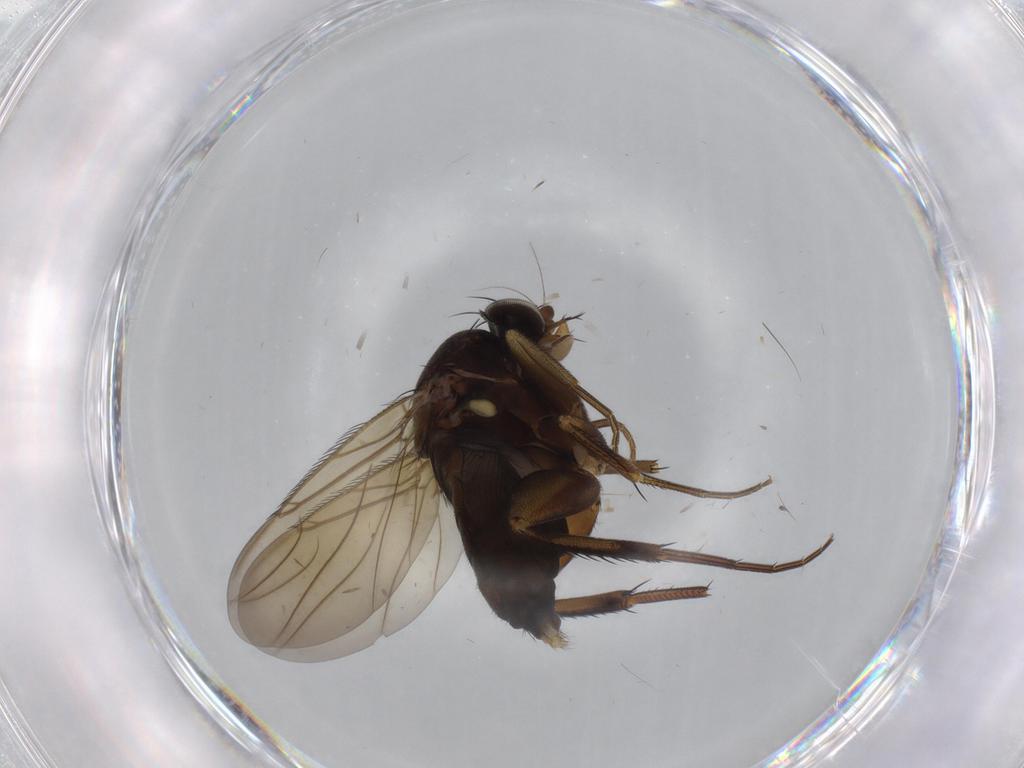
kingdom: Animalia
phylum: Arthropoda
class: Insecta
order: Diptera
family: Phoridae
